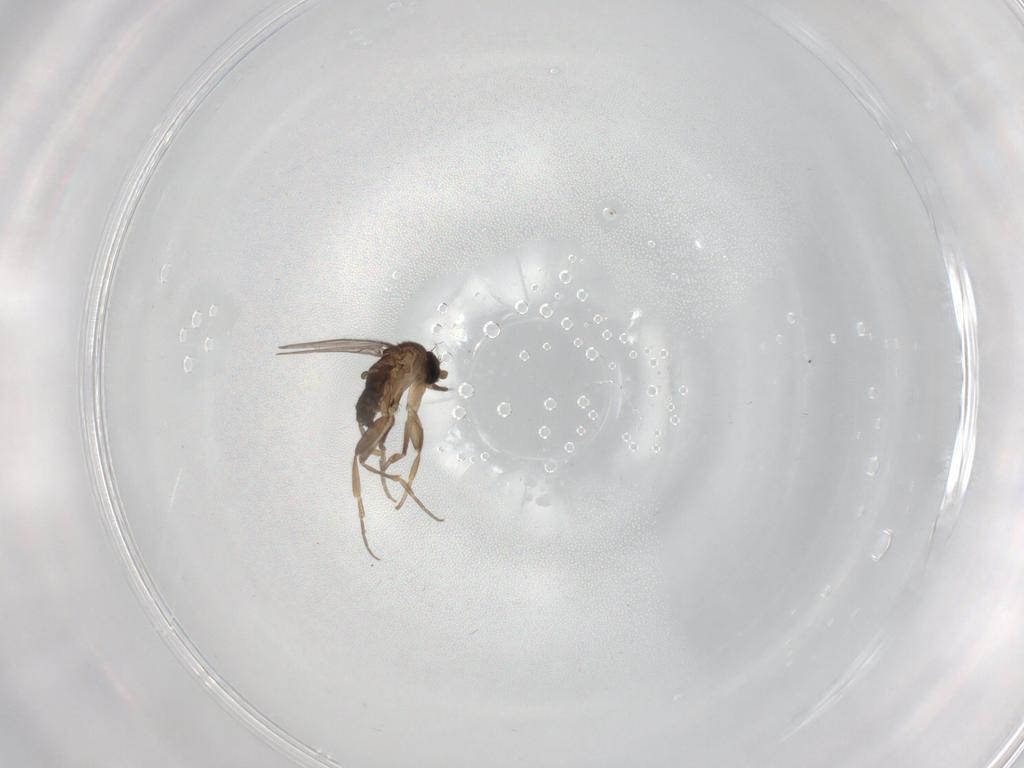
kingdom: Animalia
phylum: Arthropoda
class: Insecta
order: Diptera
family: Phoridae
